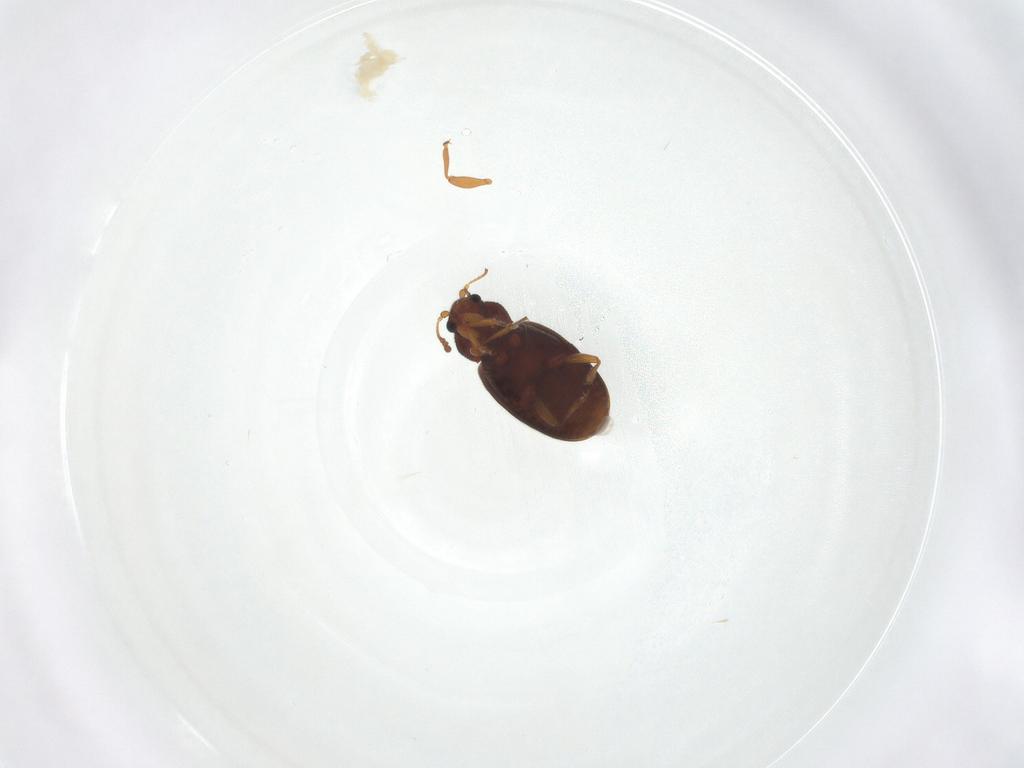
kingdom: Animalia
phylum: Arthropoda
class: Insecta
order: Coleoptera
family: Latridiidae
